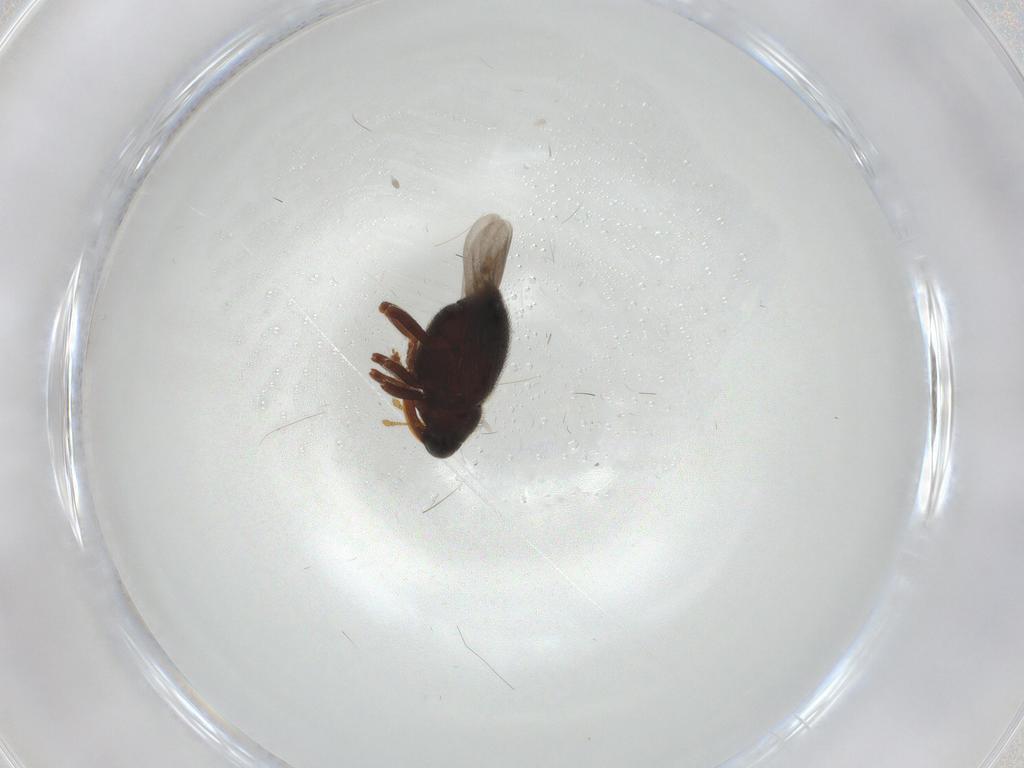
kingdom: Animalia
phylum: Arthropoda
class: Insecta
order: Coleoptera
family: Curculionidae
